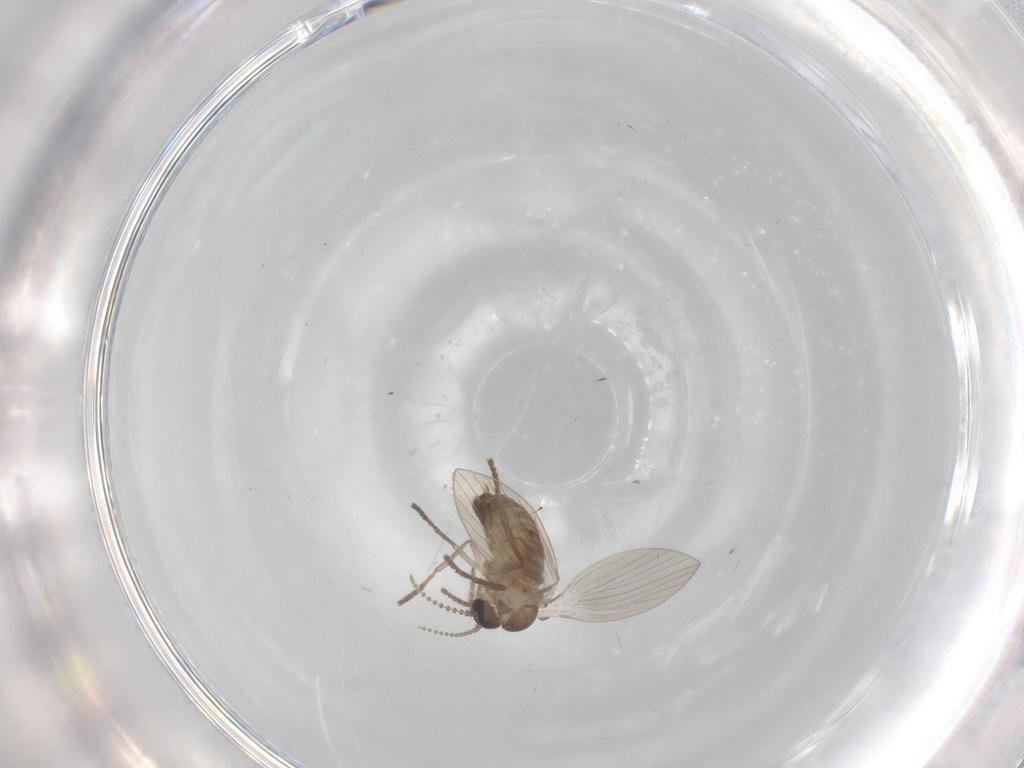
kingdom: Animalia
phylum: Arthropoda
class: Insecta
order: Diptera
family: Psychodidae
